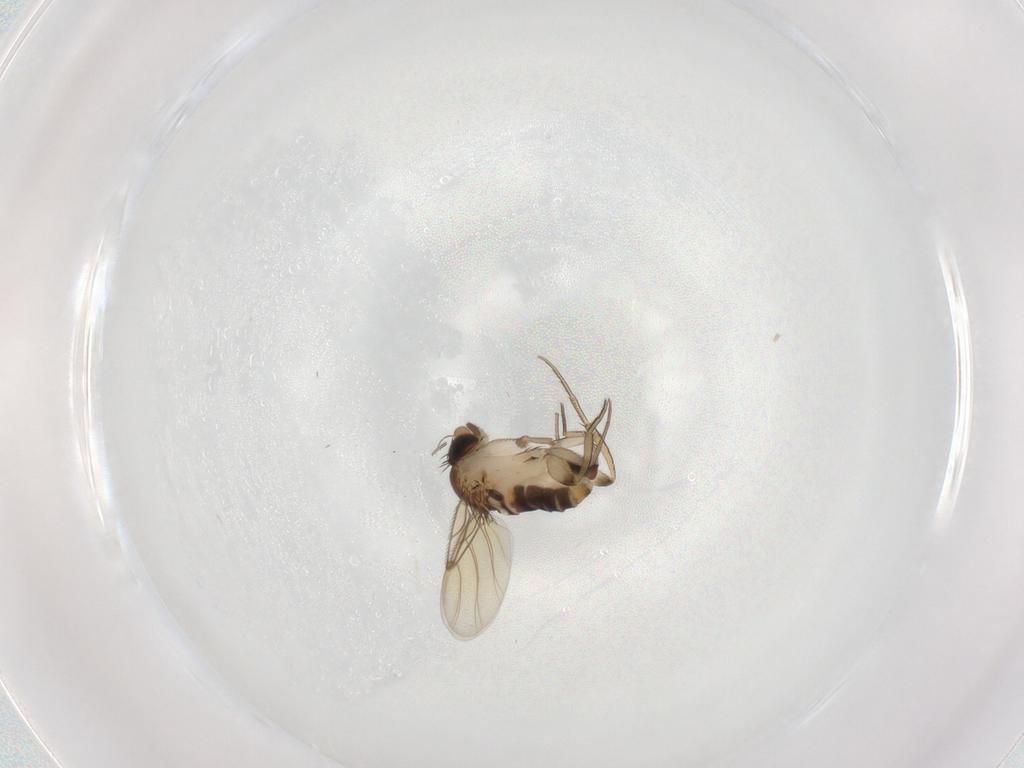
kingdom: Animalia
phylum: Arthropoda
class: Insecta
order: Diptera
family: Phoridae
